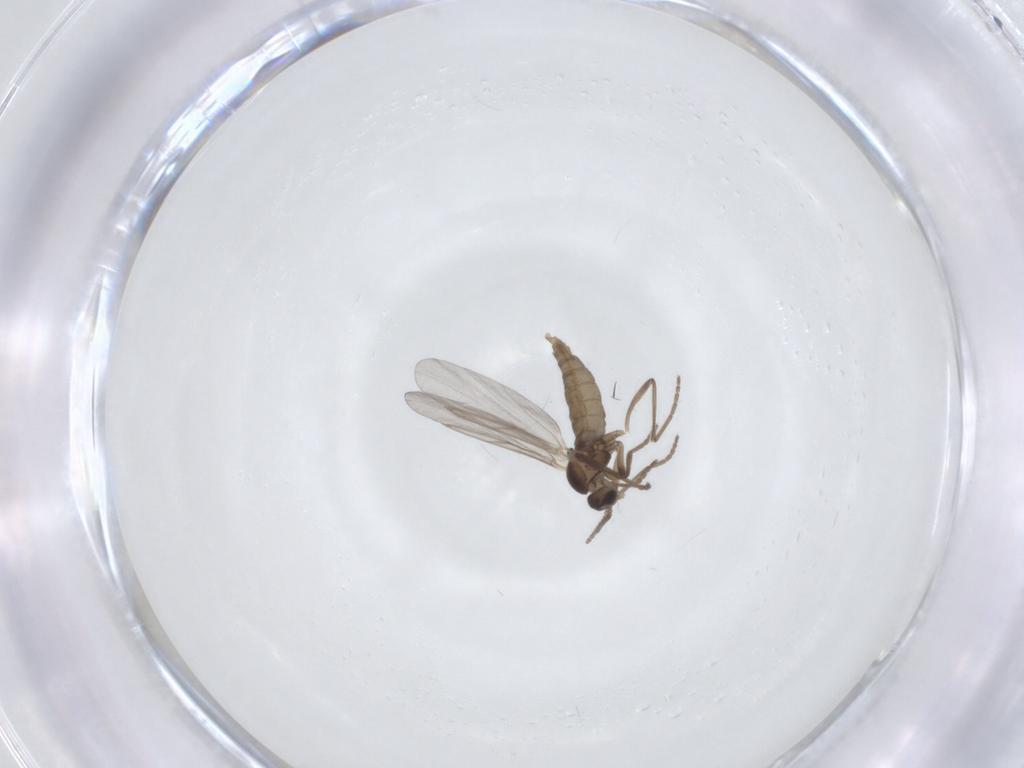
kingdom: Animalia
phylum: Arthropoda
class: Insecta
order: Diptera
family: Cecidomyiidae
